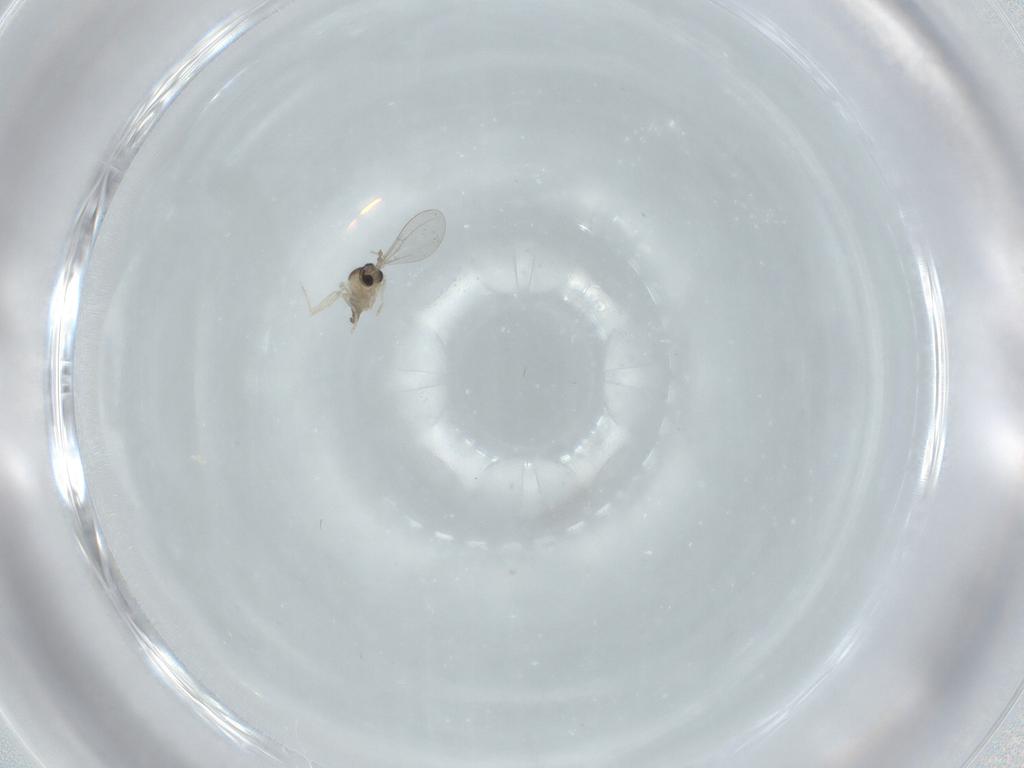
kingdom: Animalia
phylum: Arthropoda
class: Insecta
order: Diptera
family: Cecidomyiidae
